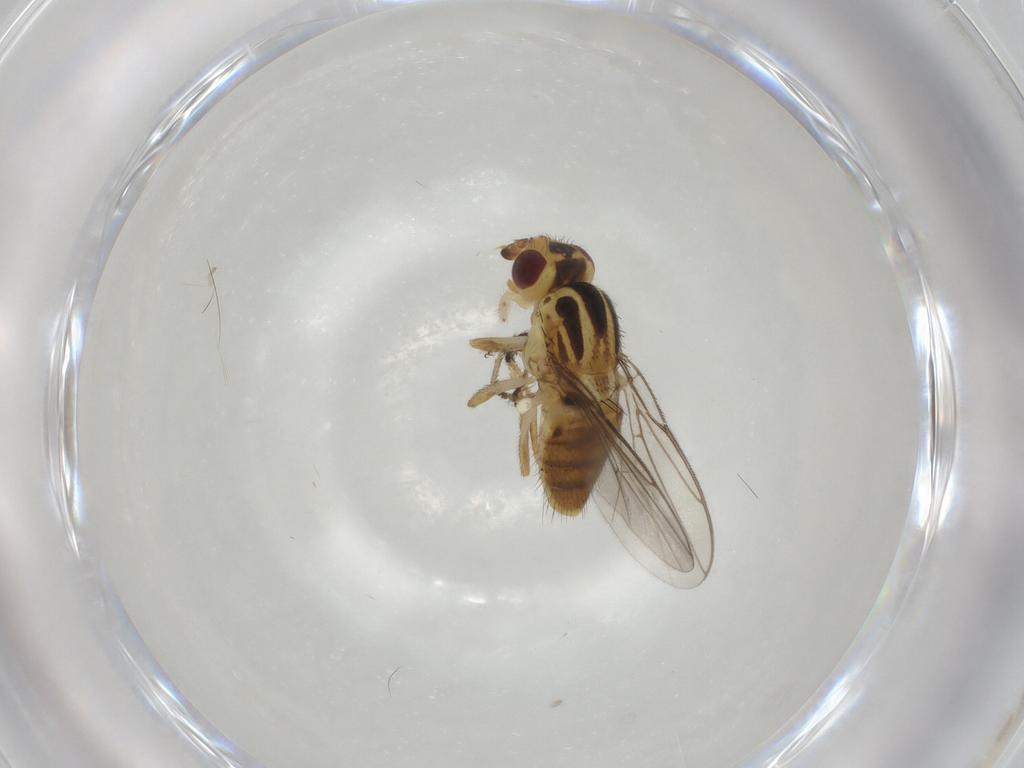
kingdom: Animalia
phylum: Arthropoda
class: Insecta
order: Diptera
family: Chloropidae
